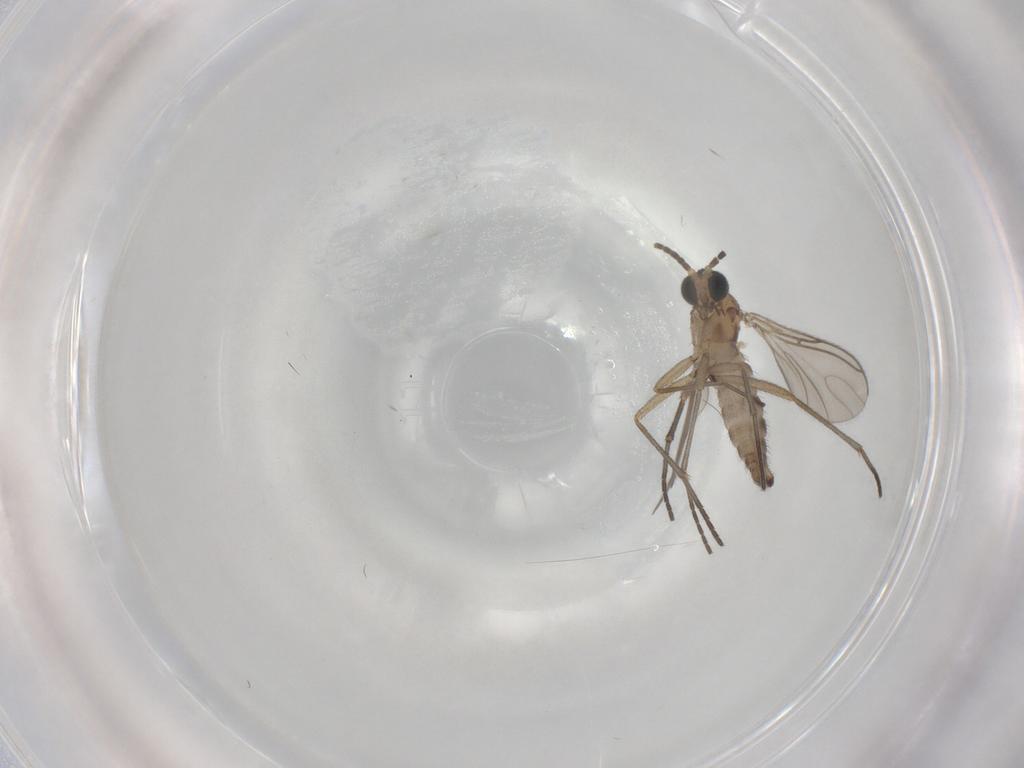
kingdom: Animalia
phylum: Arthropoda
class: Insecta
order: Diptera
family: Sciaridae
